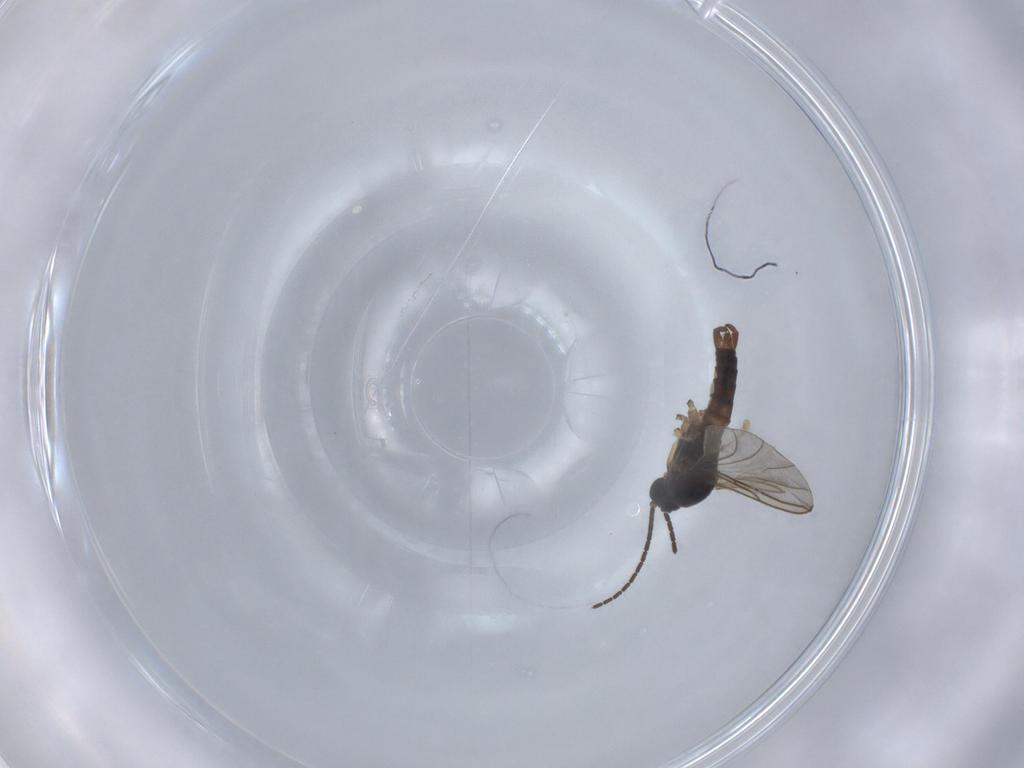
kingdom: Animalia
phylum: Arthropoda
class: Insecta
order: Diptera
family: Sciaridae
